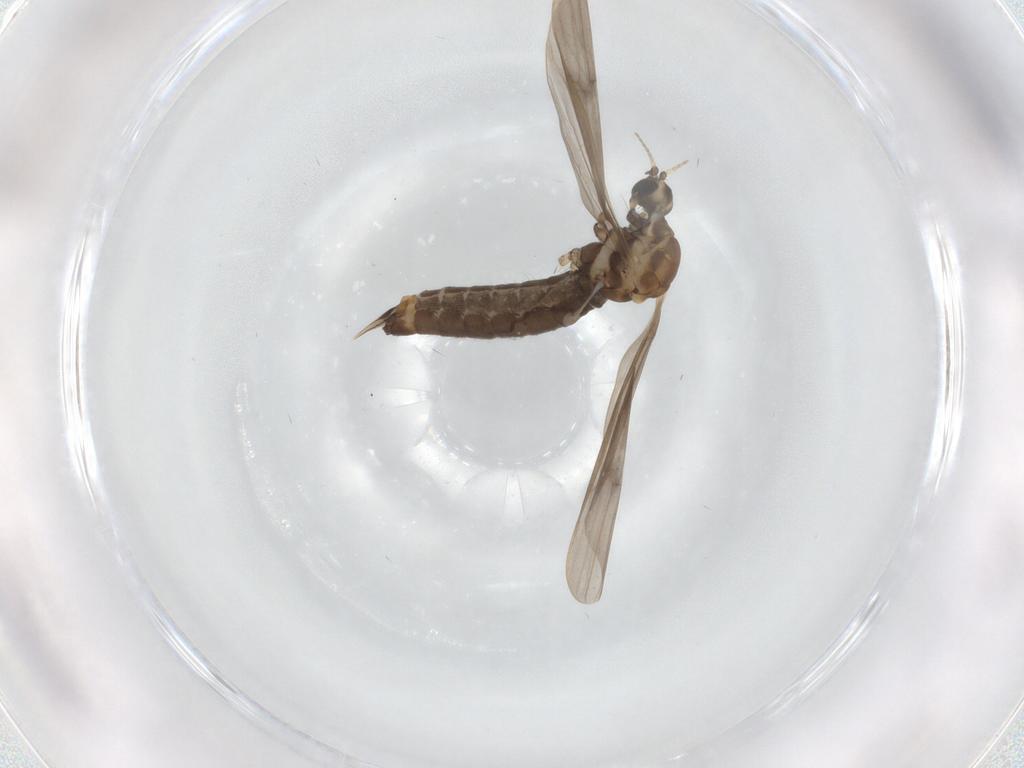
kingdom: Animalia
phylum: Arthropoda
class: Insecta
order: Diptera
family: Limoniidae
